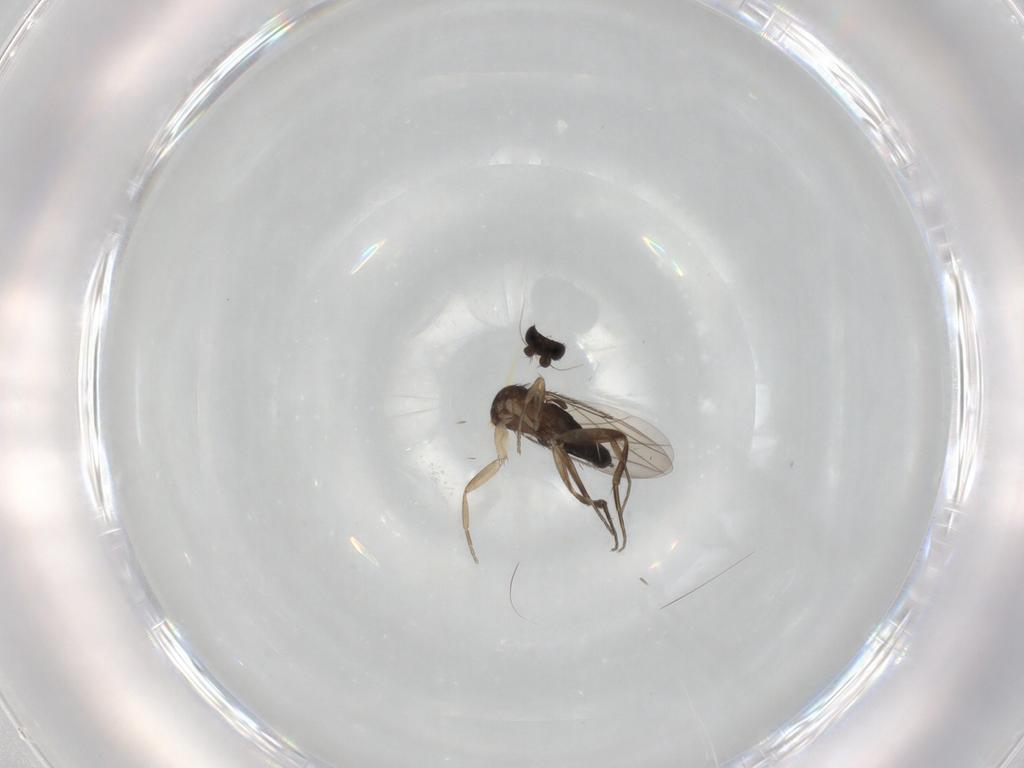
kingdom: Animalia
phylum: Arthropoda
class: Insecta
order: Diptera
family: Phoridae
